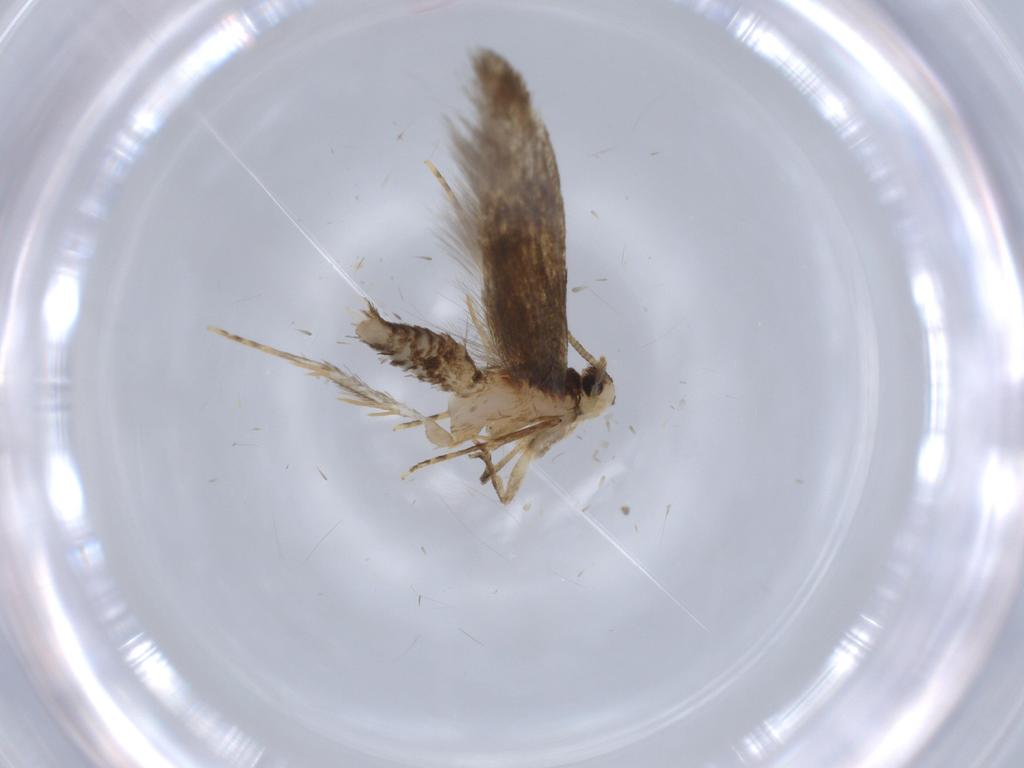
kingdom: Animalia
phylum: Arthropoda
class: Insecta
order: Lepidoptera
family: Tineidae
